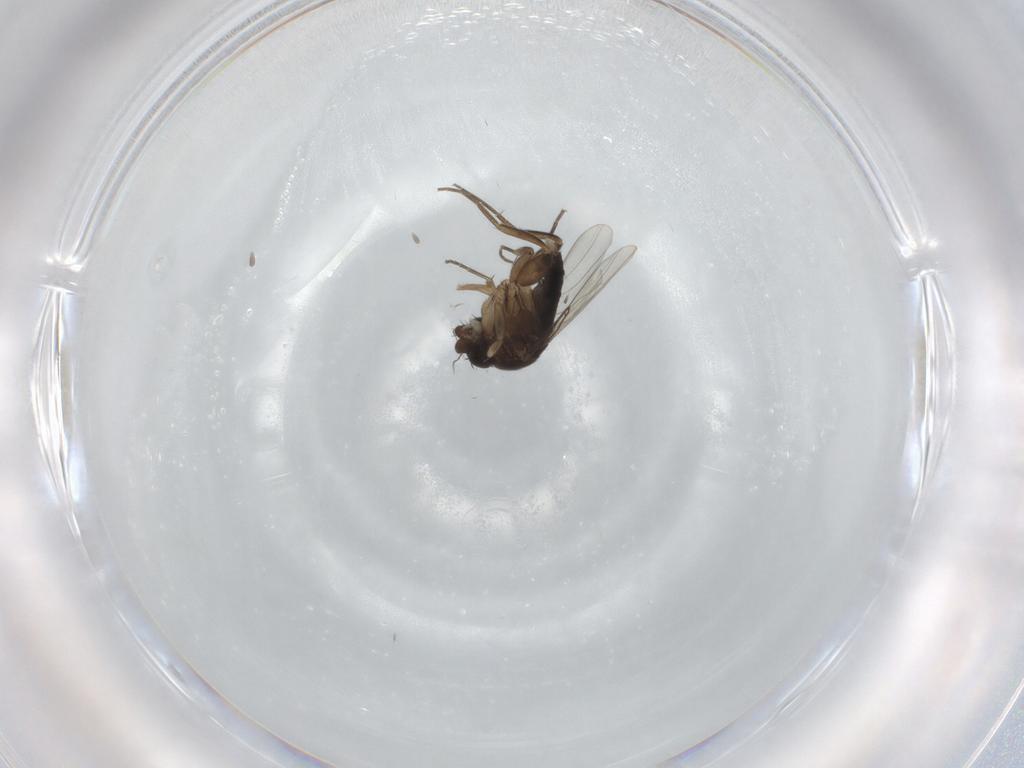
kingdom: Animalia
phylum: Arthropoda
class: Insecta
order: Diptera
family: Phoridae
